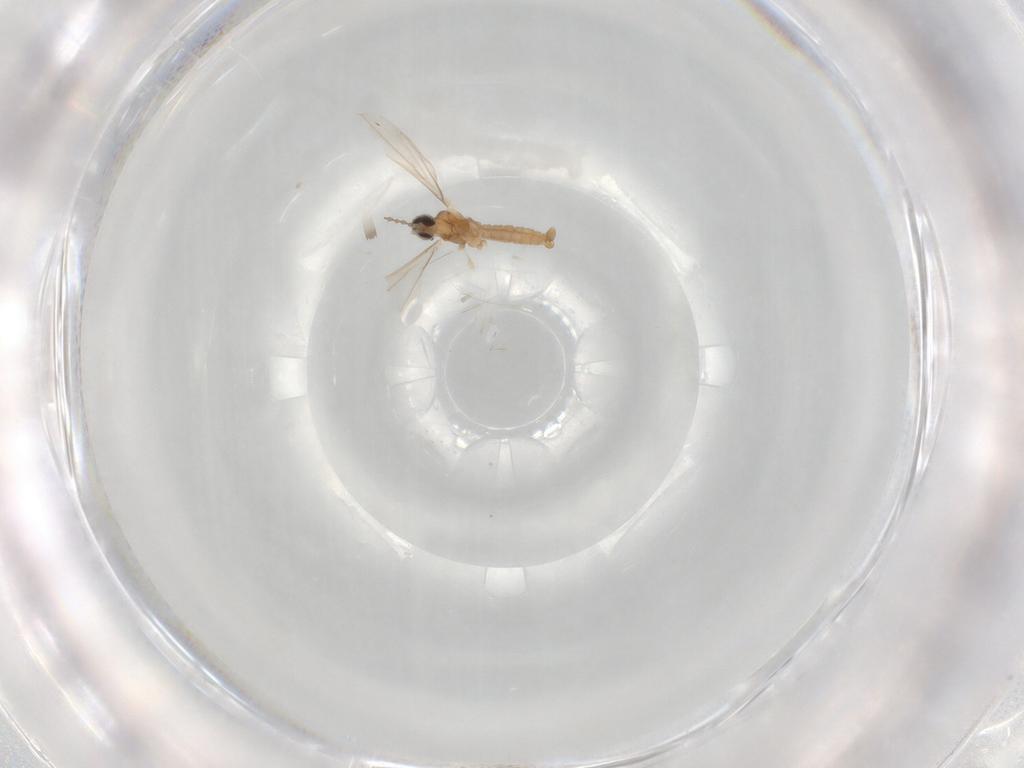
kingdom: Animalia
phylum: Arthropoda
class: Insecta
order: Diptera
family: Cecidomyiidae
